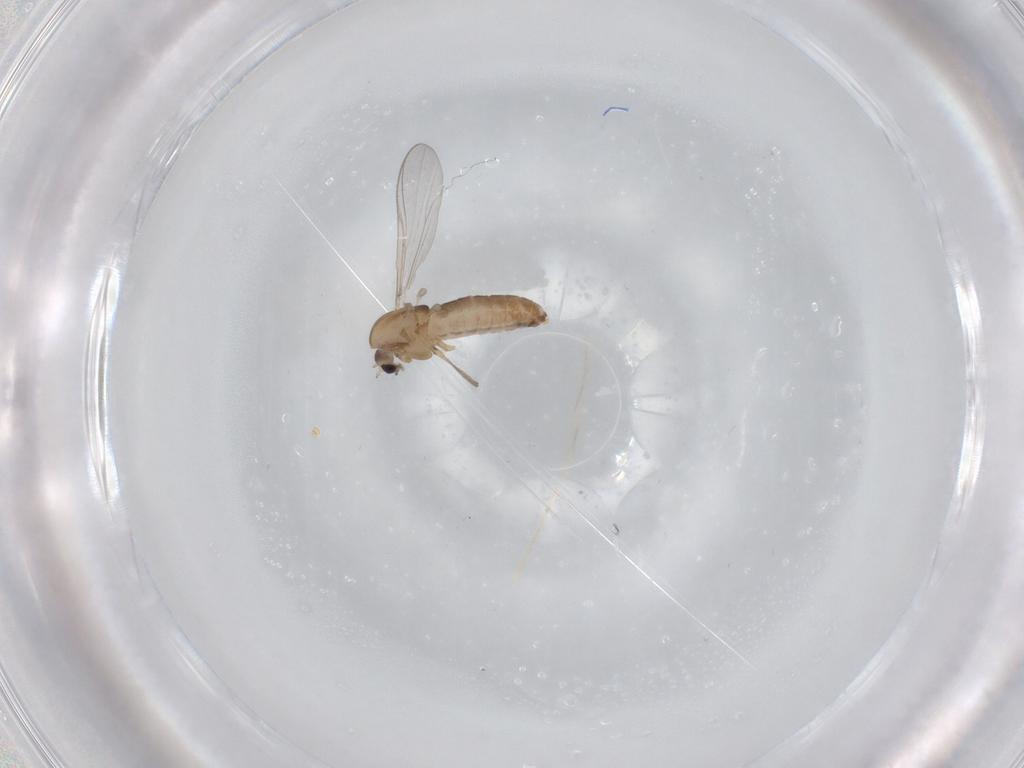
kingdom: Animalia
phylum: Arthropoda
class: Insecta
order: Diptera
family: Chironomidae
